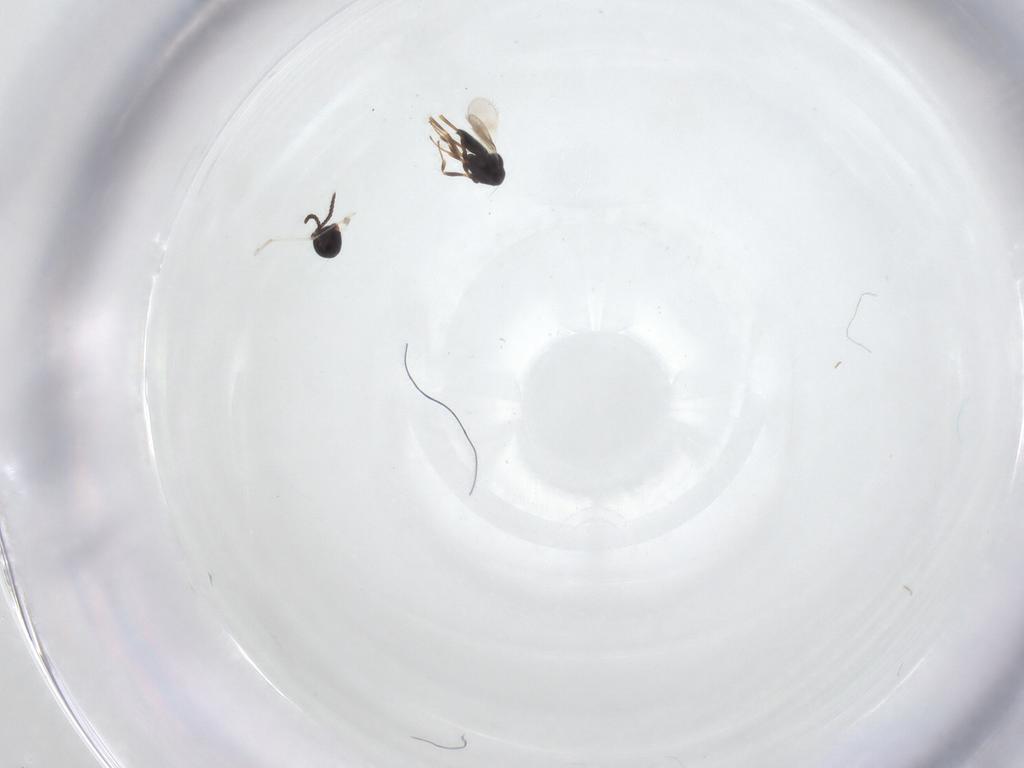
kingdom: Animalia
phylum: Arthropoda
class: Insecta
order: Hymenoptera
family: Scelionidae
